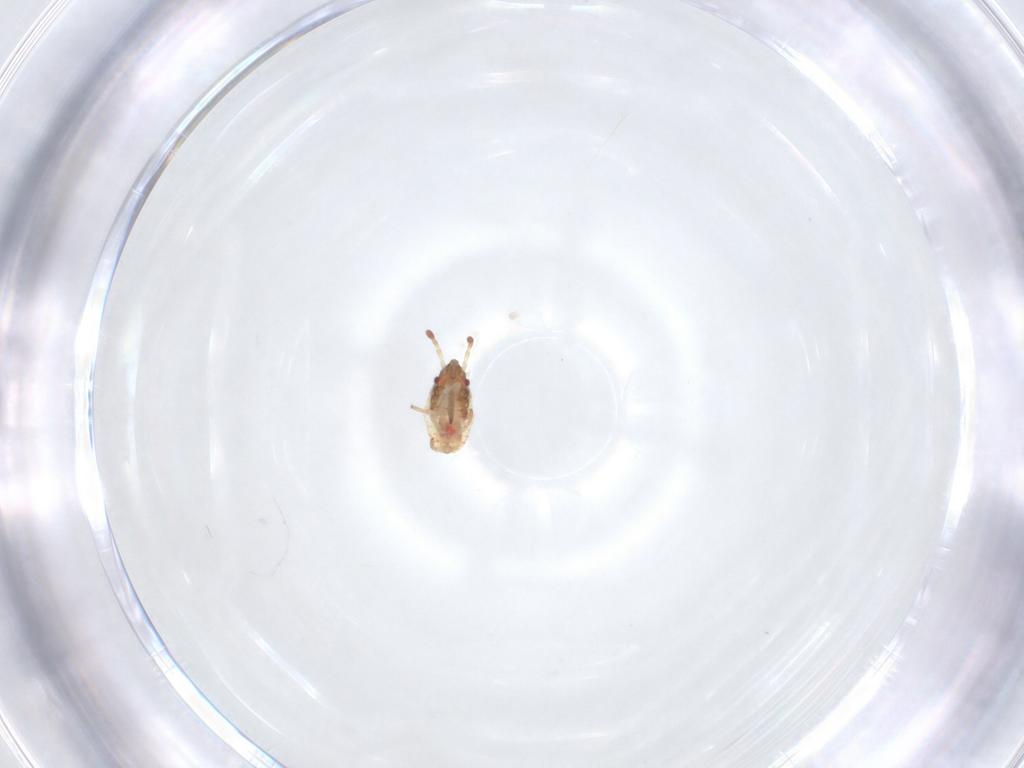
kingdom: Animalia
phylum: Arthropoda
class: Insecta
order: Hemiptera
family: Lygaeidae
